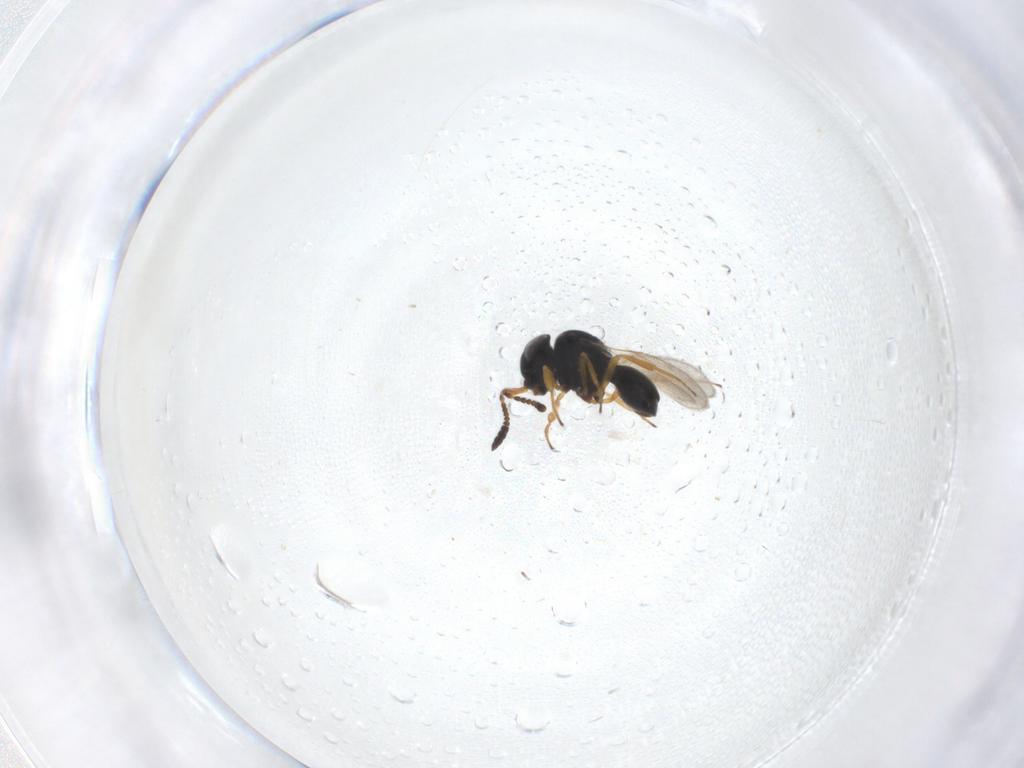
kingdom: Animalia
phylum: Arthropoda
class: Insecta
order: Hymenoptera
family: Scelionidae
